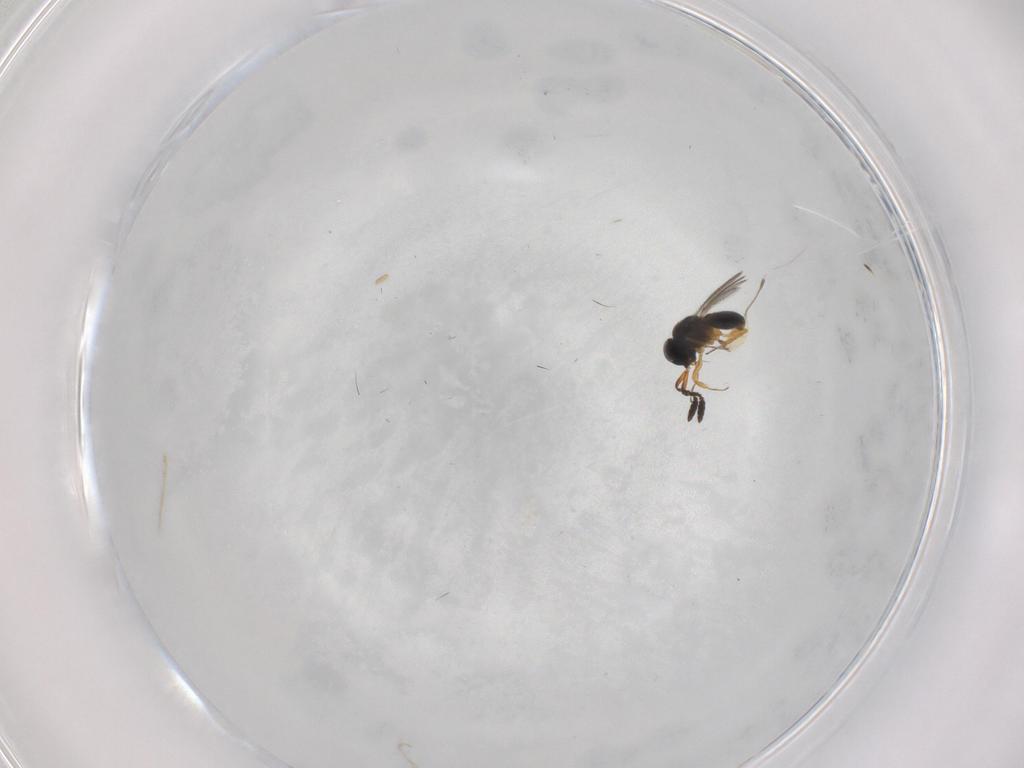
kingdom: Animalia
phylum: Arthropoda
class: Insecta
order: Hymenoptera
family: Scelionidae
